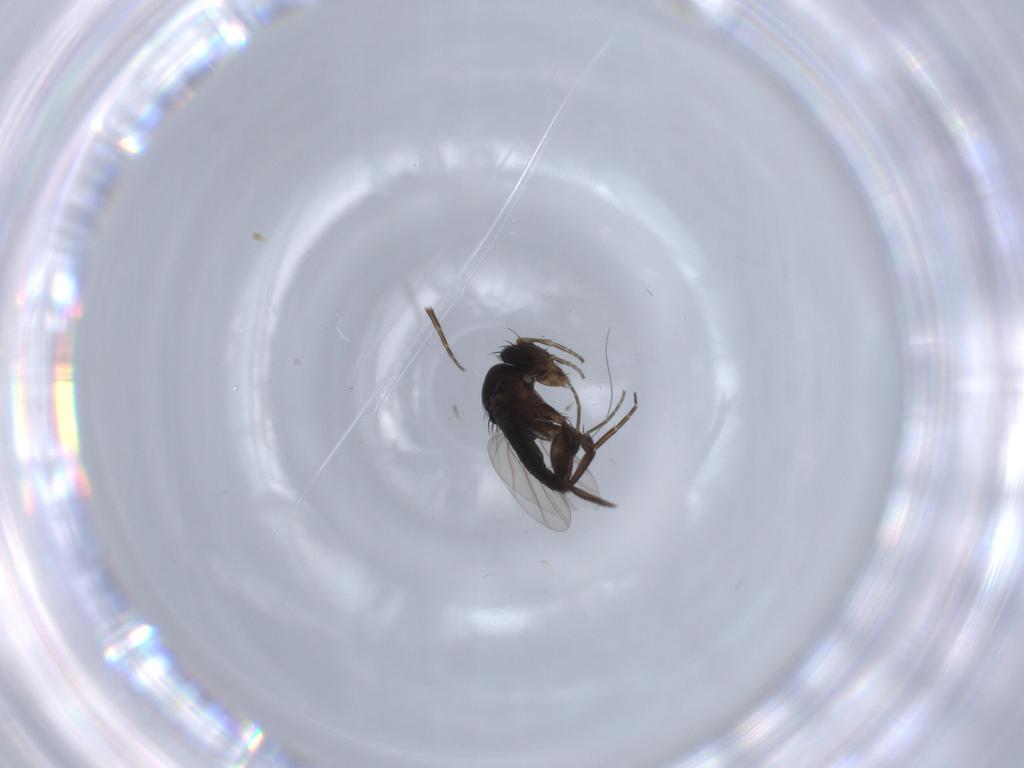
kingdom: Animalia
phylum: Arthropoda
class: Insecta
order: Diptera
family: Phoridae
